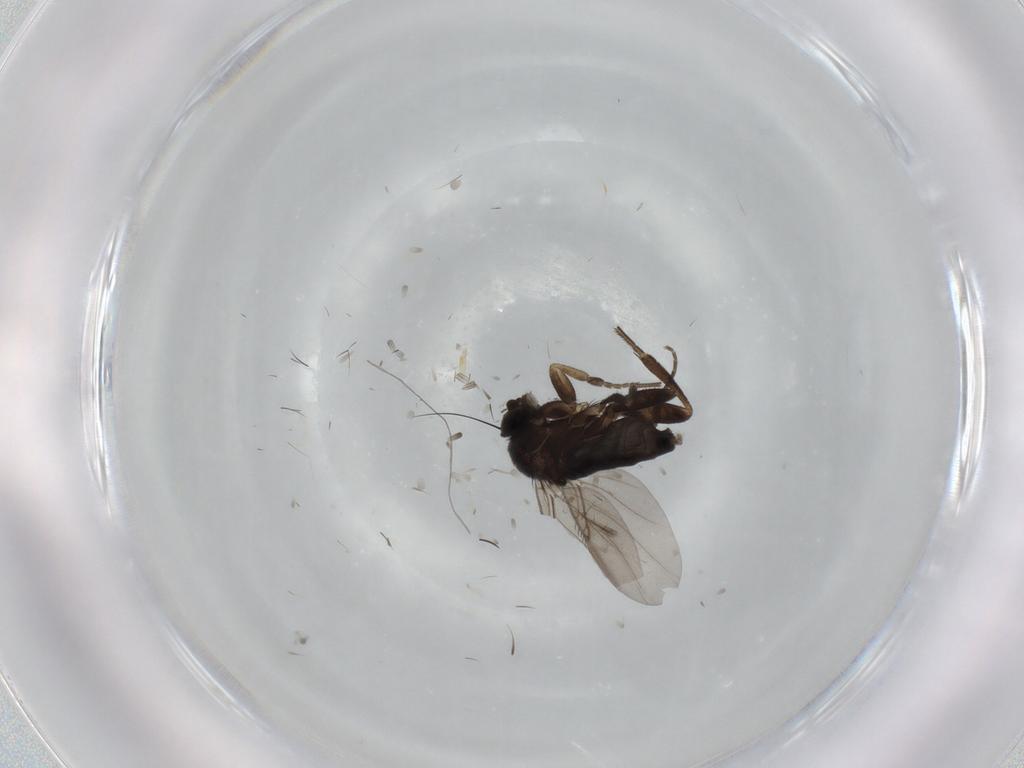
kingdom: Animalia
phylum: Arthropoda
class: Insecta
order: Diptera
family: Phoridae
